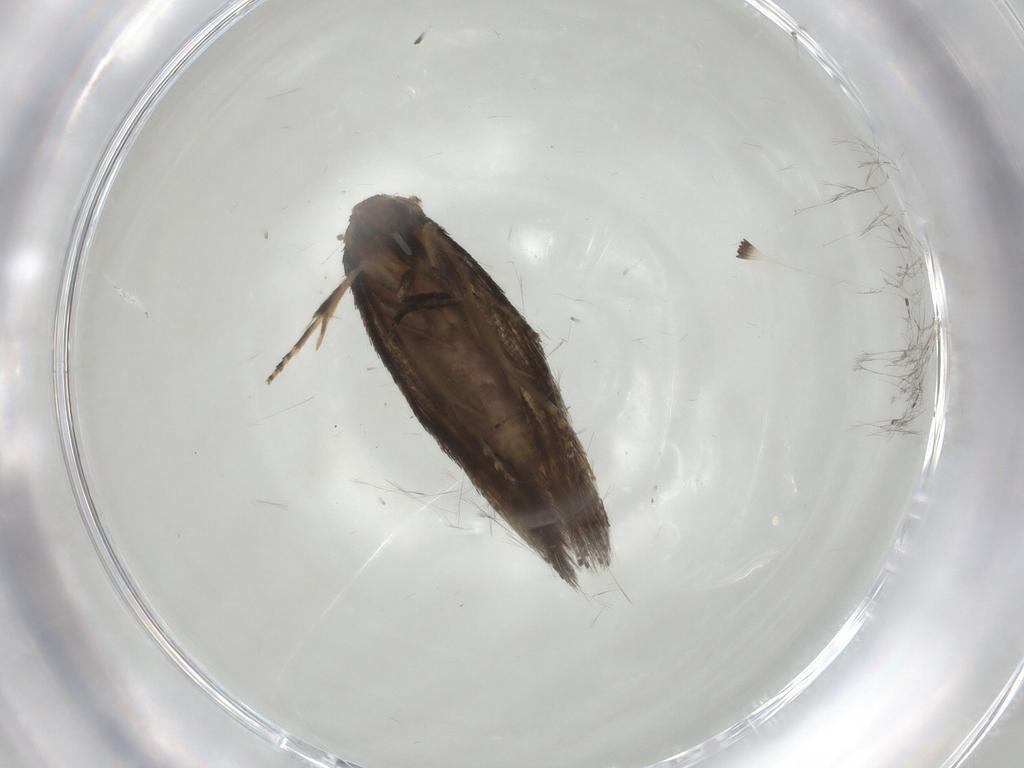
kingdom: Animalia
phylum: Arthropoda
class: Insecta
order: Lepidoptera
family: Elachistidae
